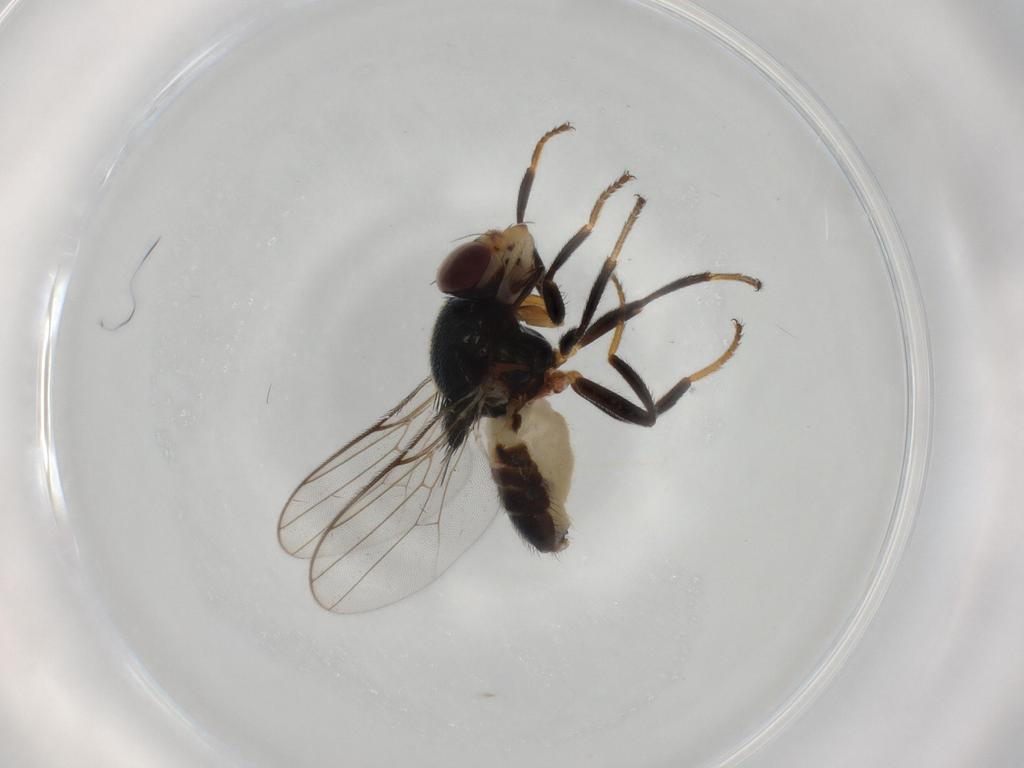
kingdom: Animalia
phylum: Arthropoda
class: Insecta
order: Diptera
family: Chloropidae
